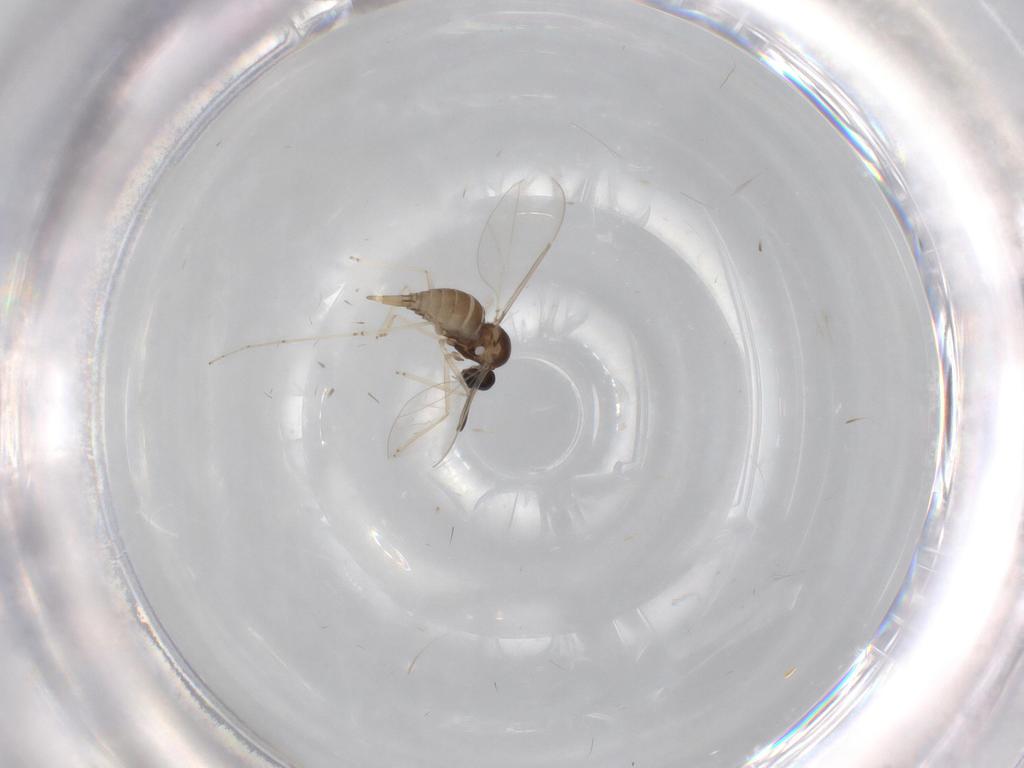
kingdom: Animalia
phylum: Arthropoda
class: Insecta
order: Diptera
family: Cecidomyiidae
